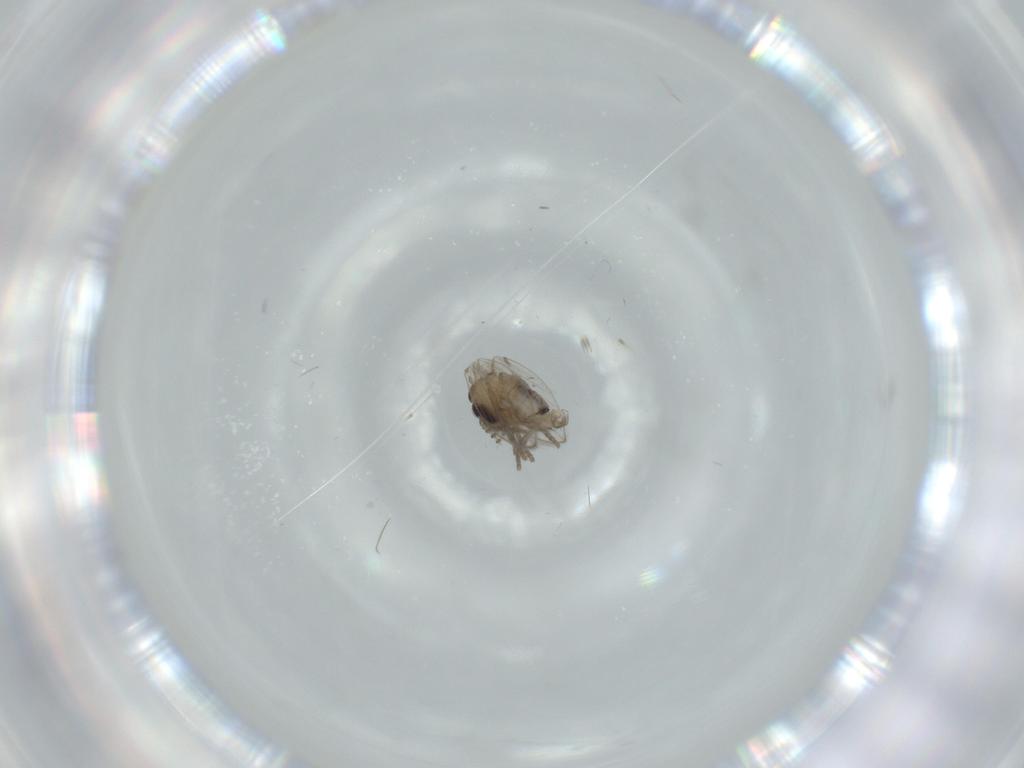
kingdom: Animalia
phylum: Arthropoda
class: Insecta
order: Diptera
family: Psychodidae
